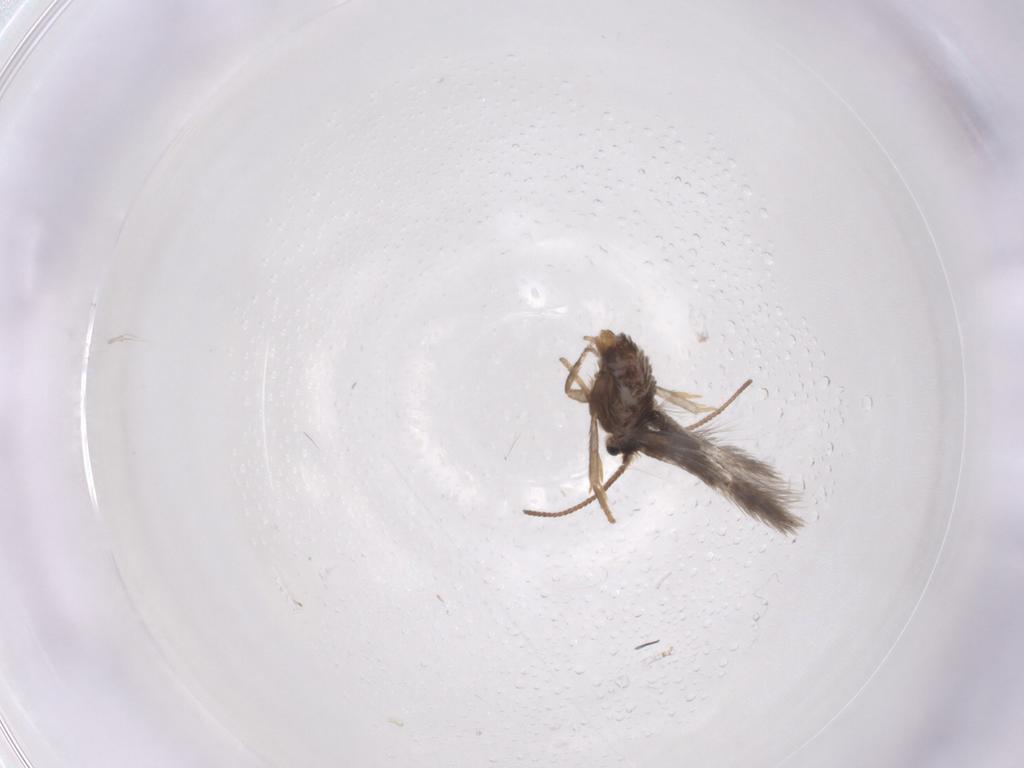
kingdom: Animalia
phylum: Arthropoda
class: Insecta
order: Lepidoptera
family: Nepticulidae
